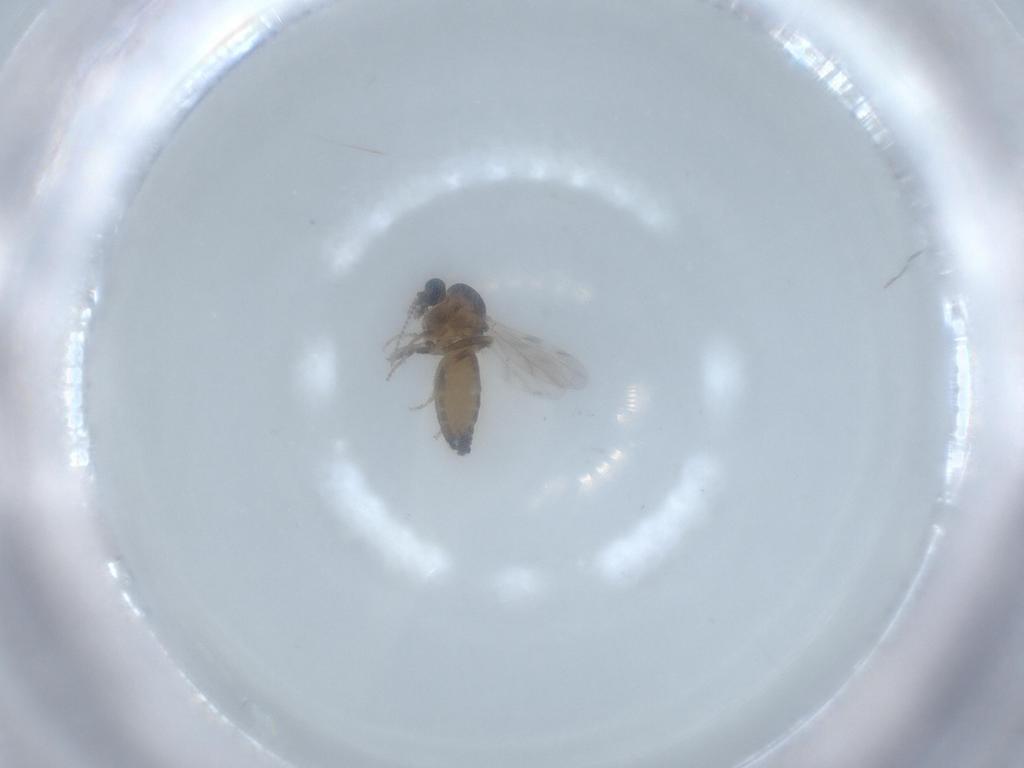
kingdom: Animalia
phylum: Arthropoda
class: Insecta
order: Diptera
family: Ceratopogonidae
